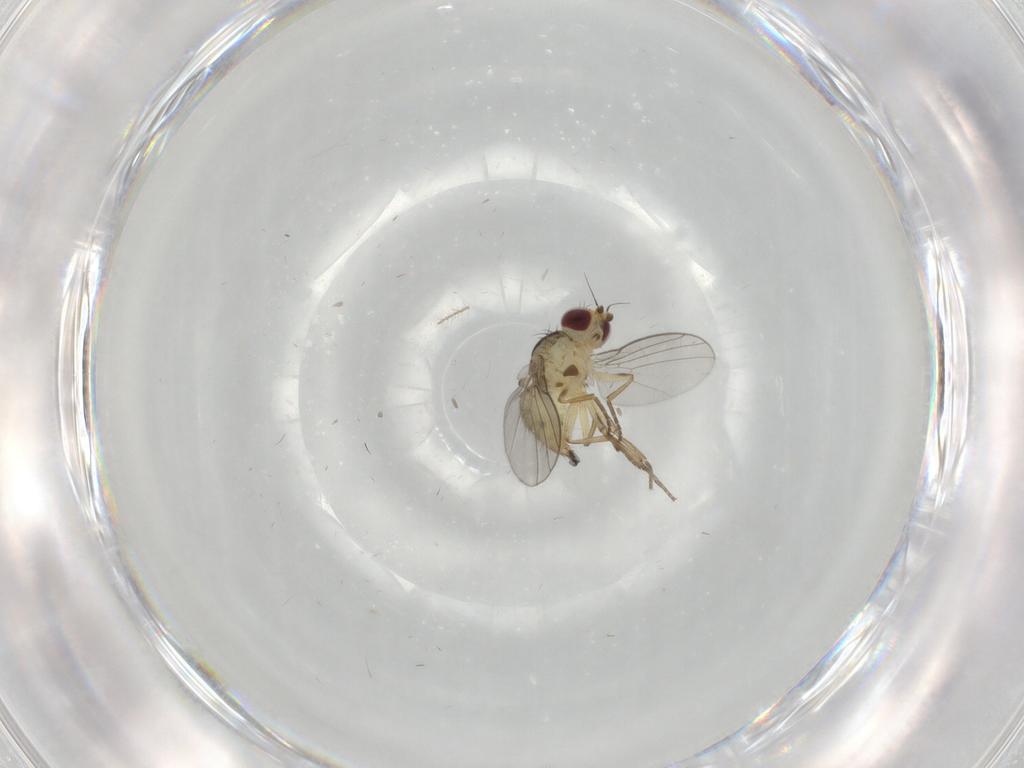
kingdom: Animalia
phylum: Arthropoda
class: Insecta
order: Diptera
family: Agromyzidae
